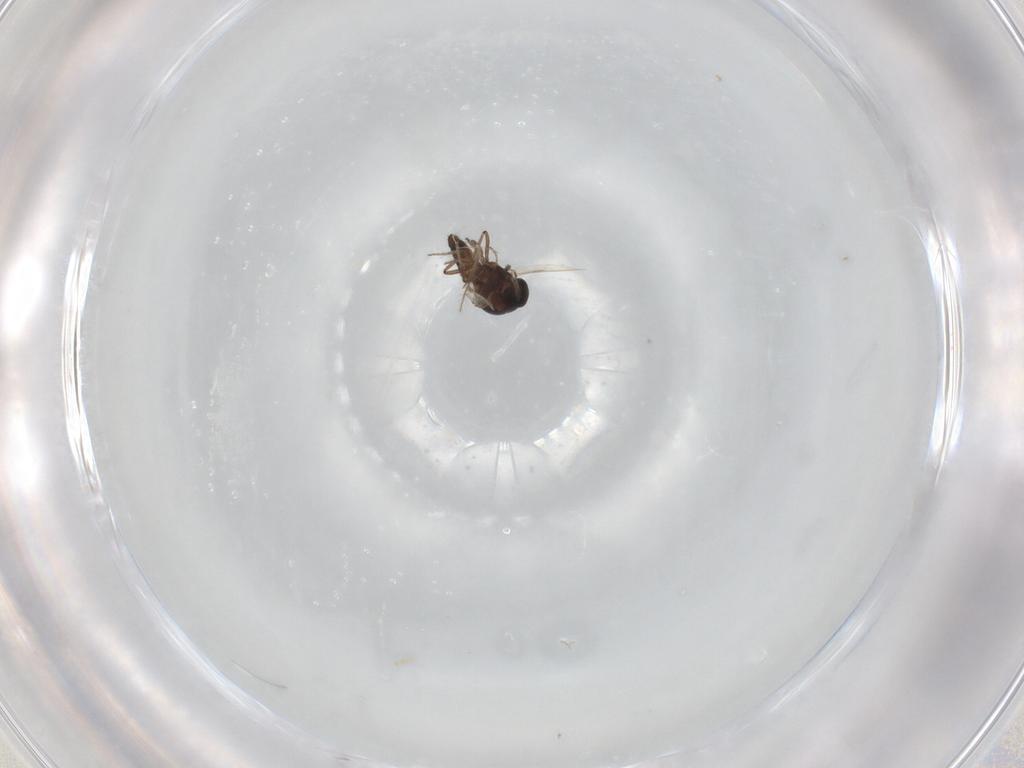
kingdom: Animalia
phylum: Arthropoda
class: Insecta
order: Diptera
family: Ceratopogonidae
